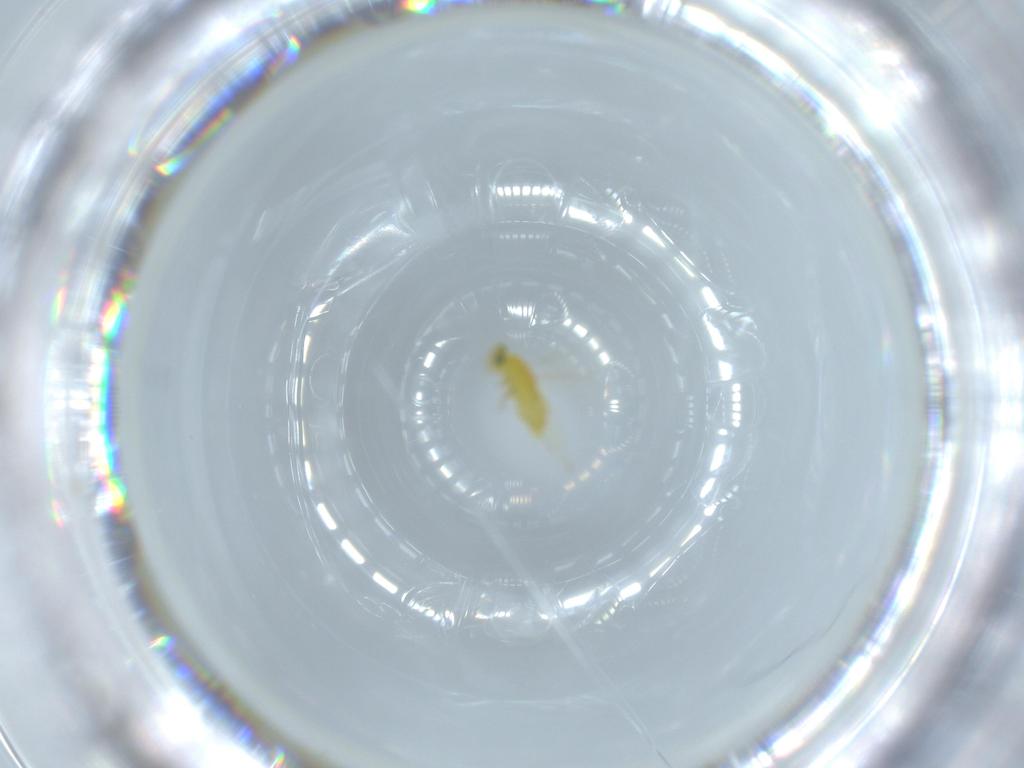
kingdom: Animalia
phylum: Arthropoda
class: Insecta
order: Hymenoptera
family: Aphelinidae
